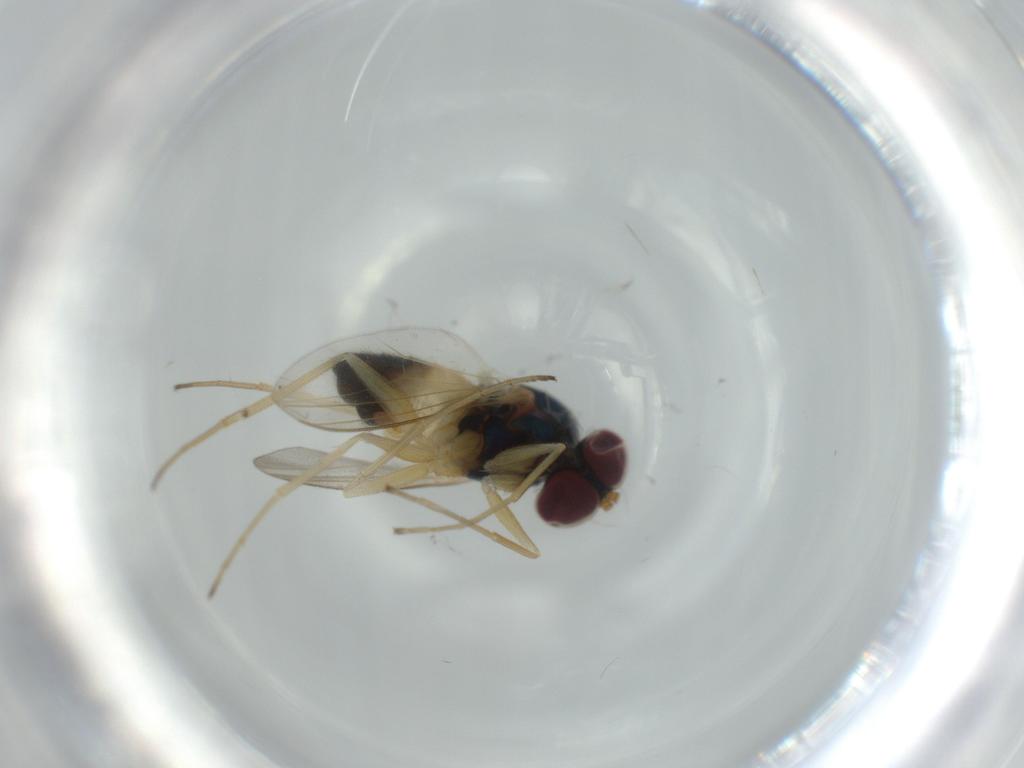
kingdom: Animalia
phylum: Arthropoda
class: Insecta
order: Diptera
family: Dolichopodidae
